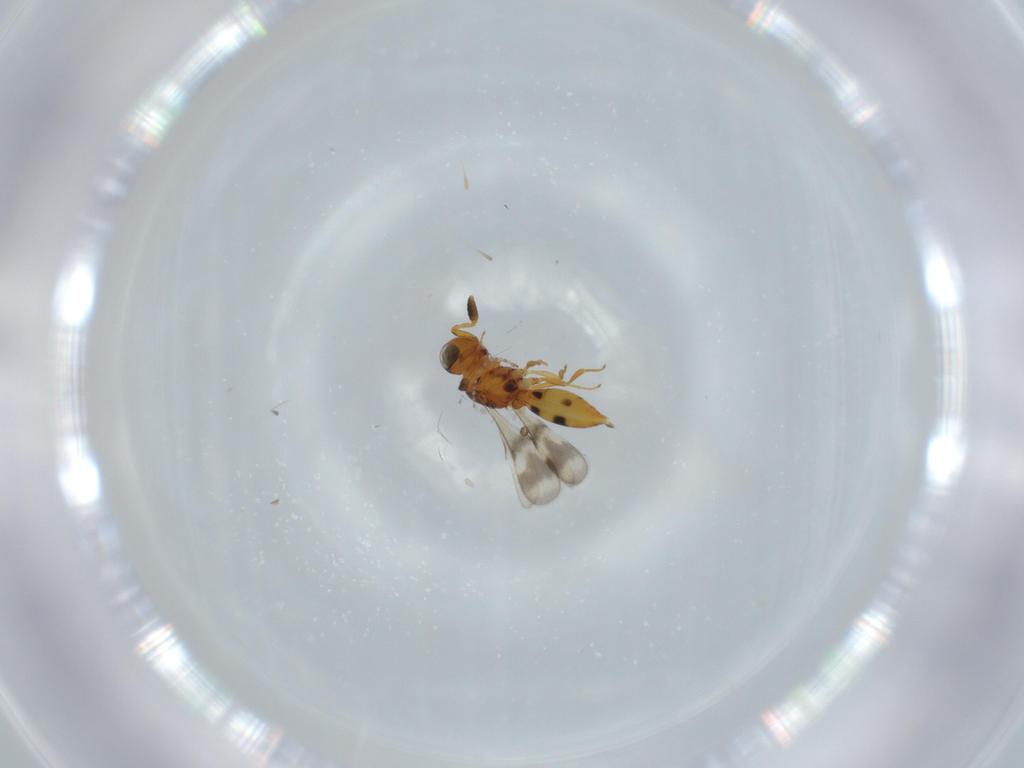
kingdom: Animalia
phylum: Arthropoda
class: Insecta
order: Hymenoptera
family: Scelionidae
